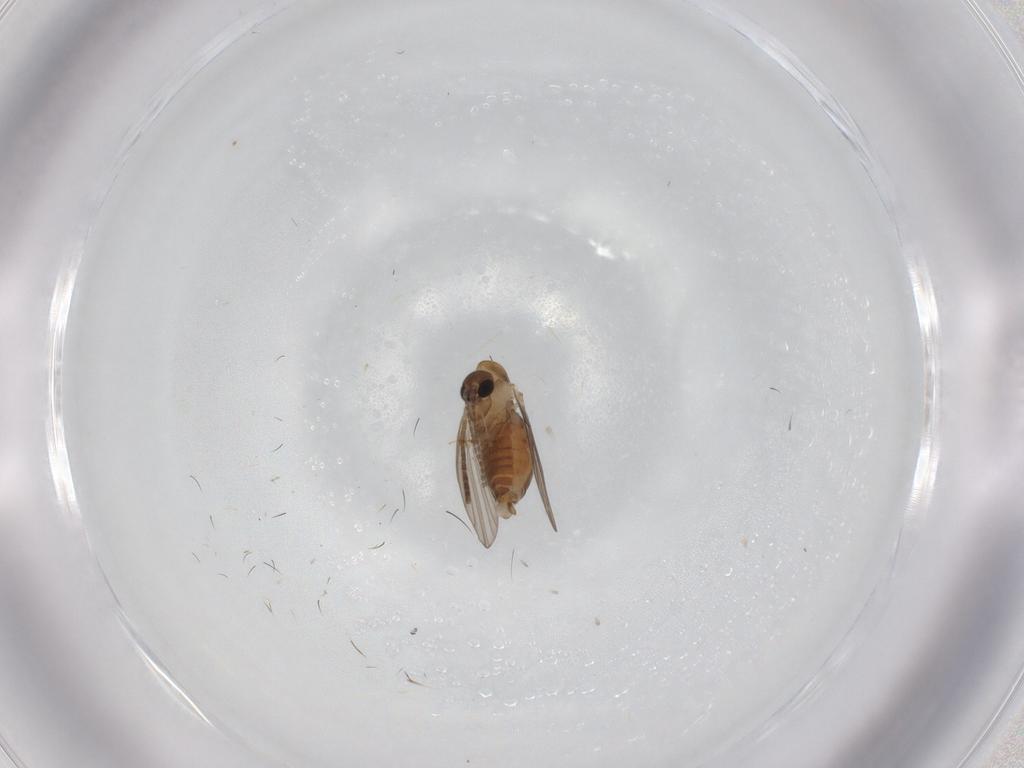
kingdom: Animalia
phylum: Arthropoda
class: Insecta
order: Diptera
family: Psychodidae
